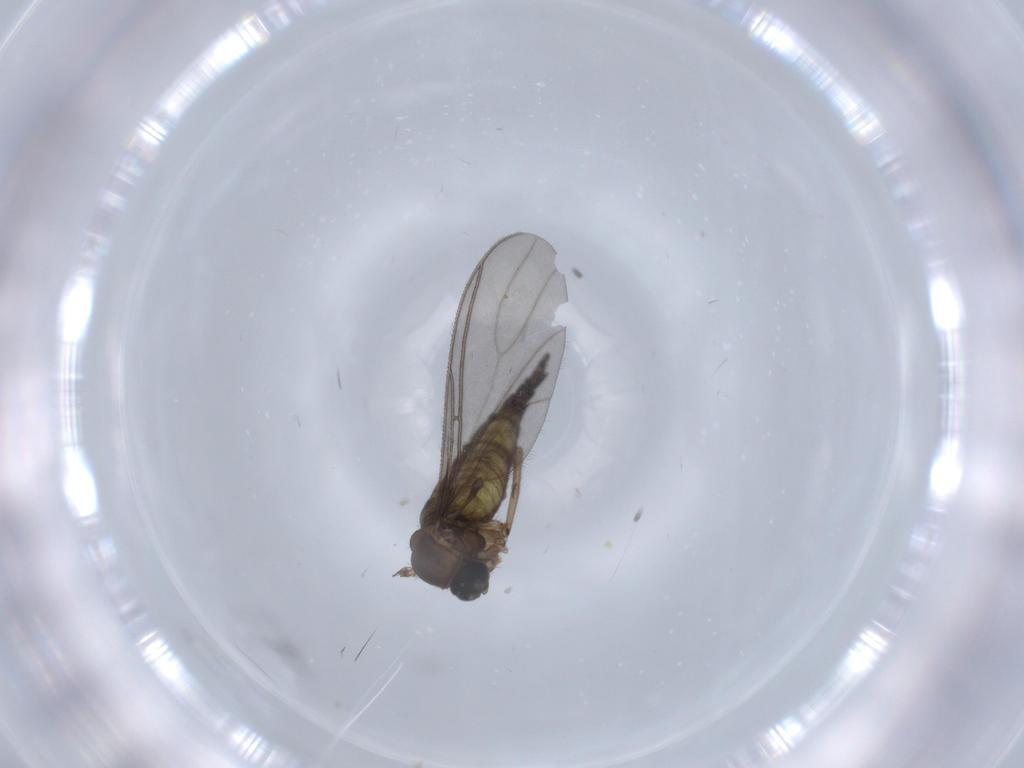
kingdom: Animalia
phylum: Arthropoda
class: Insecta
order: Diptera
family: Sciaridae
